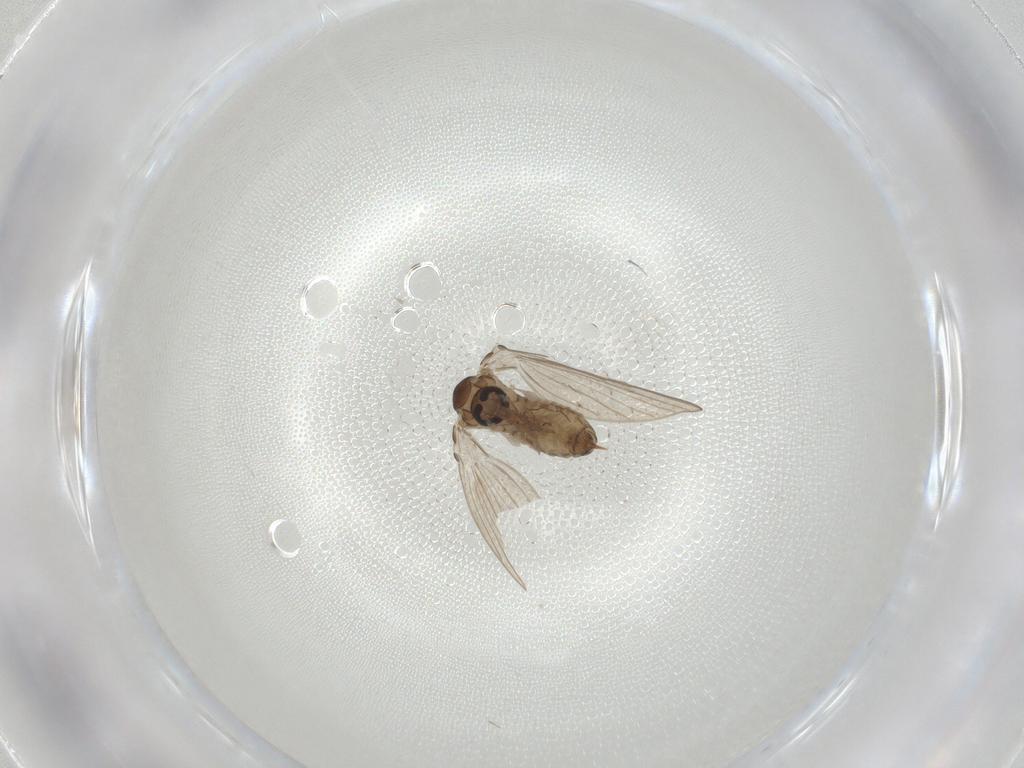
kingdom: Animalia
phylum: Arthropoda
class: Insecta
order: Diptera
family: Psychodidae
